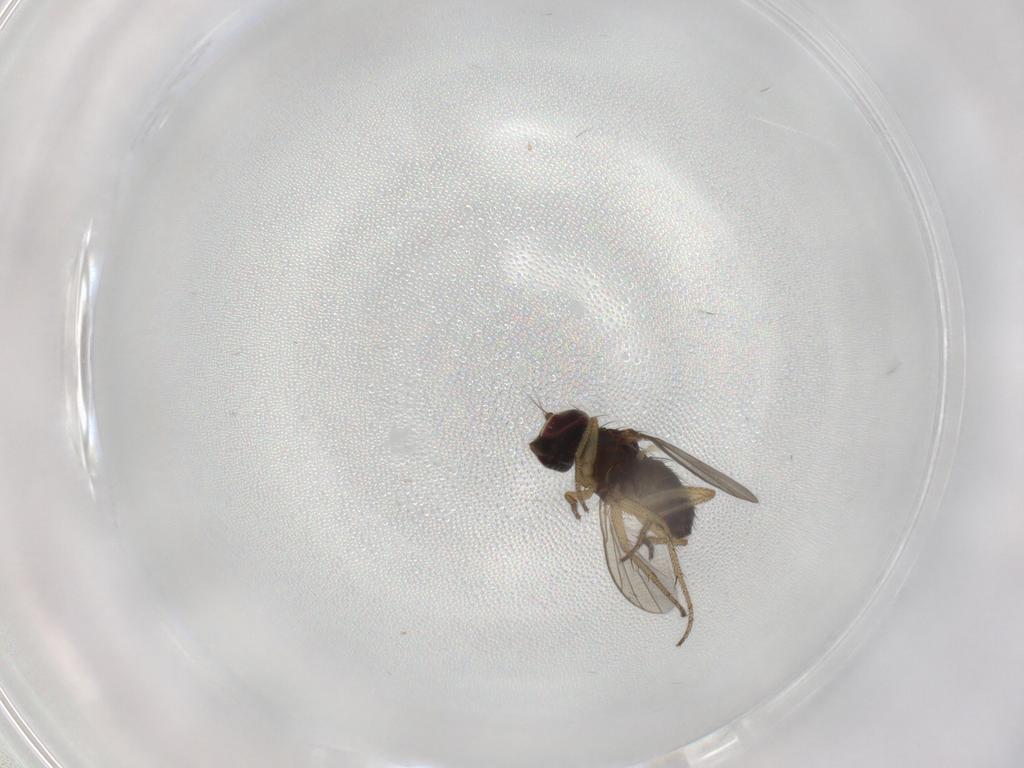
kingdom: Animalia
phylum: Arthropoda
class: Insecta
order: Diptera
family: Dolichopodidae
